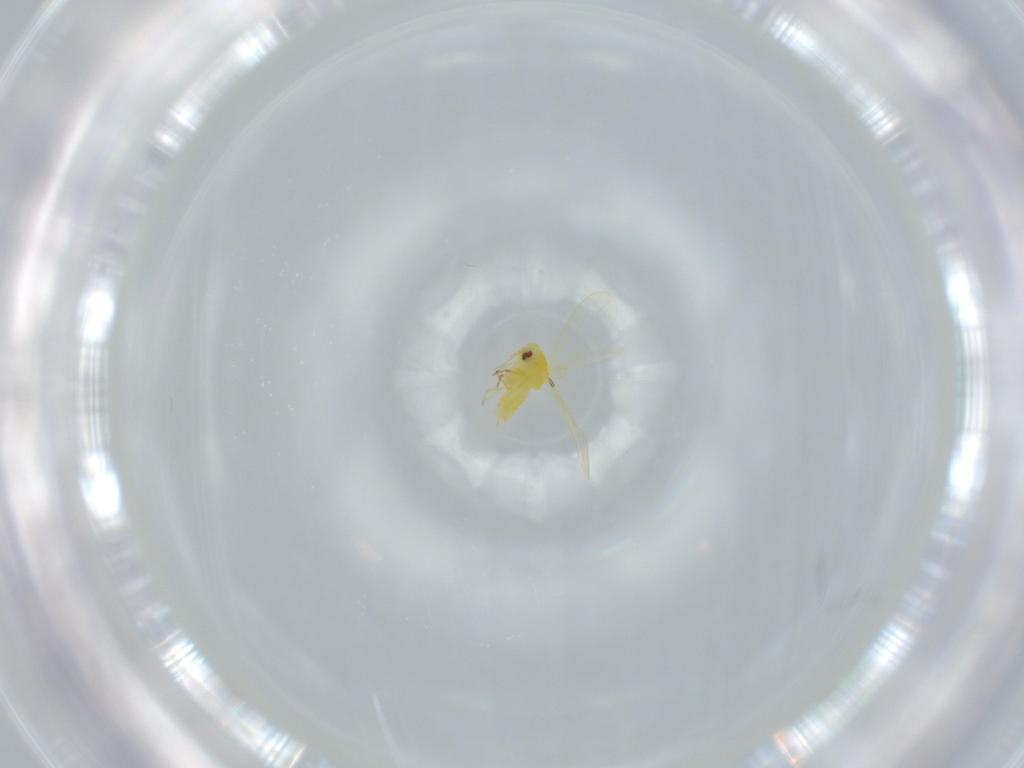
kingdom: Animalia
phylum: Arthropoda
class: Insecta
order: Hemiptera
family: Aleyrodidae
